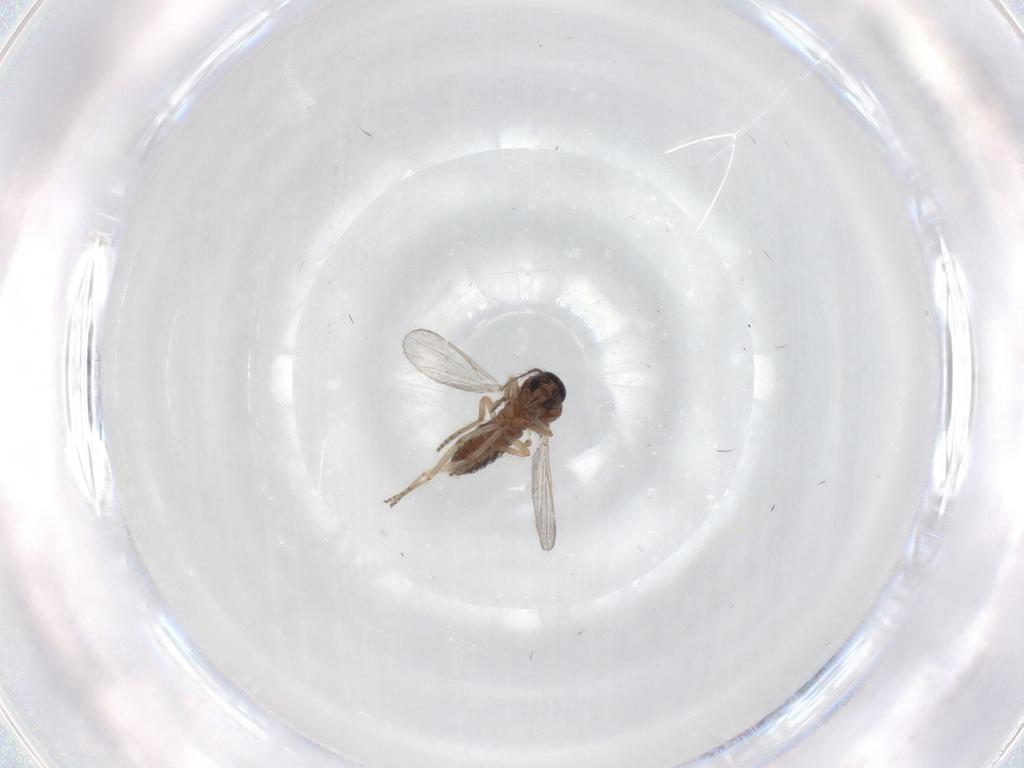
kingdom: Animalia
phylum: Arthropoda
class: Insecta
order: Diptera
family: Ceratopogonidae
